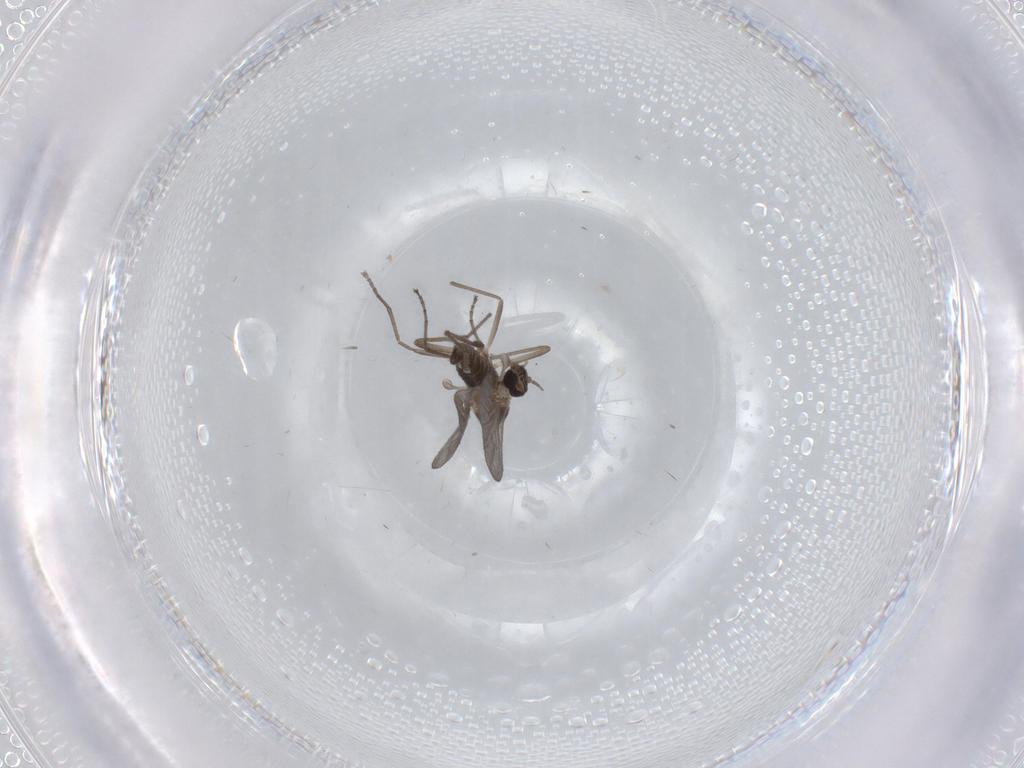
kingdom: Animalia
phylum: Arthropoda
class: Insecta
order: Diptera
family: Cecidomyiidae
